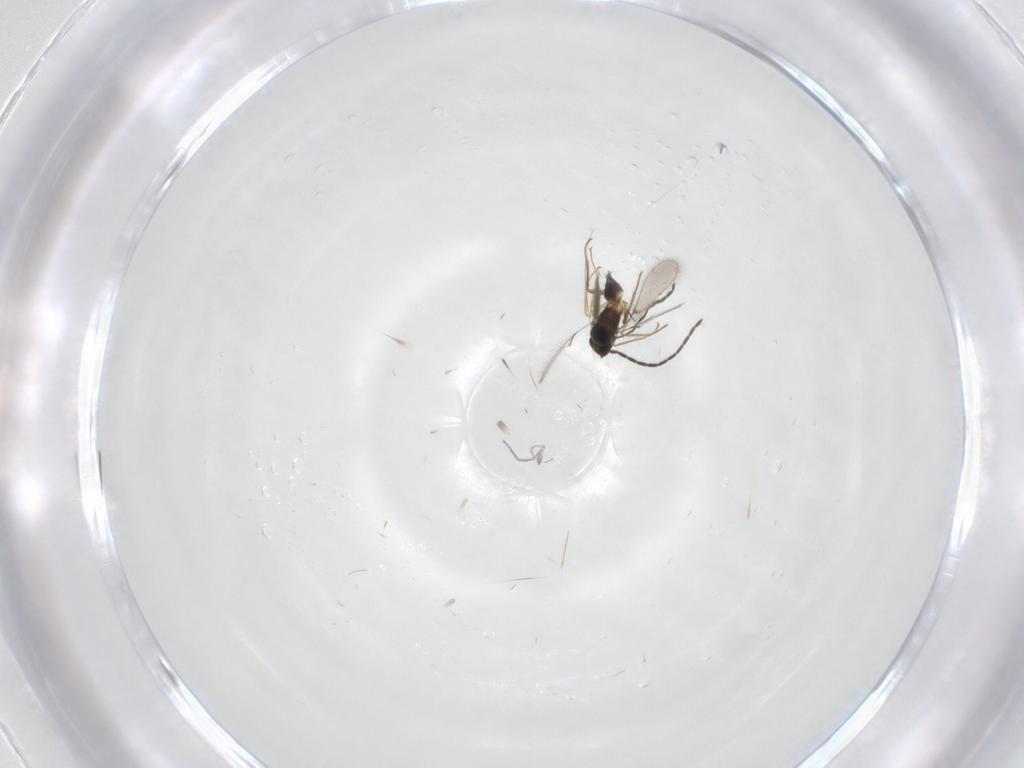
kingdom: Animalia
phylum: Arthropoda
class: Insecta
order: Hymenoptera
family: Mymaridae
